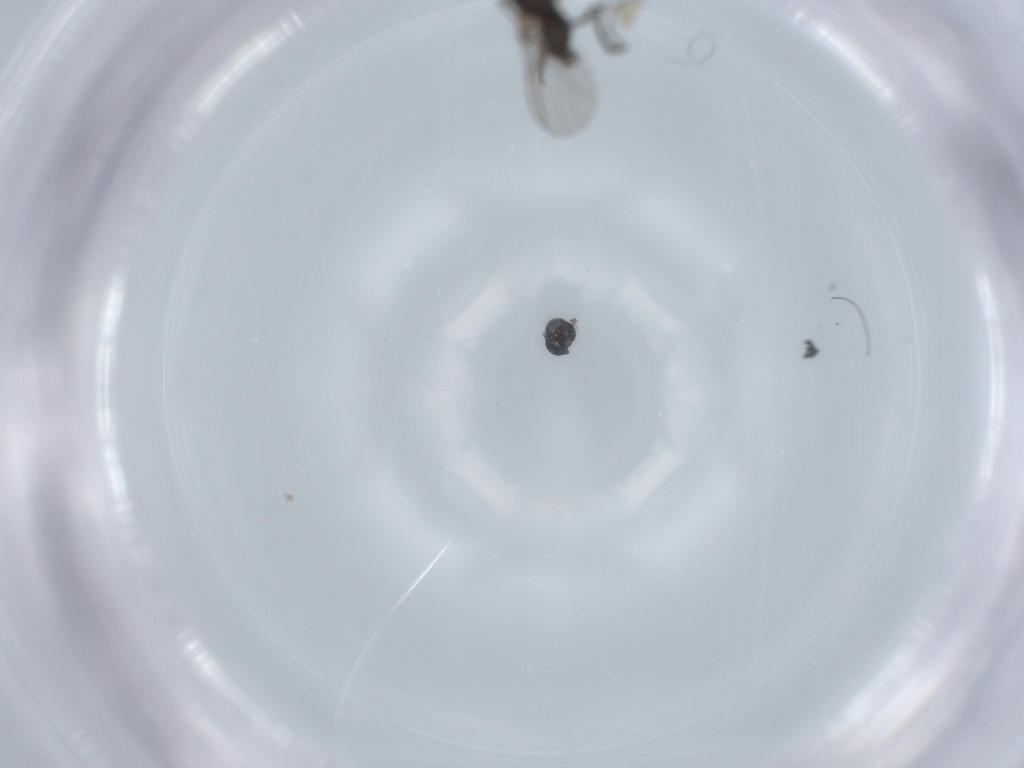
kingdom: Animalia
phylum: Arthropoda
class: Insecta
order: Diptera
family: Sciaridae
